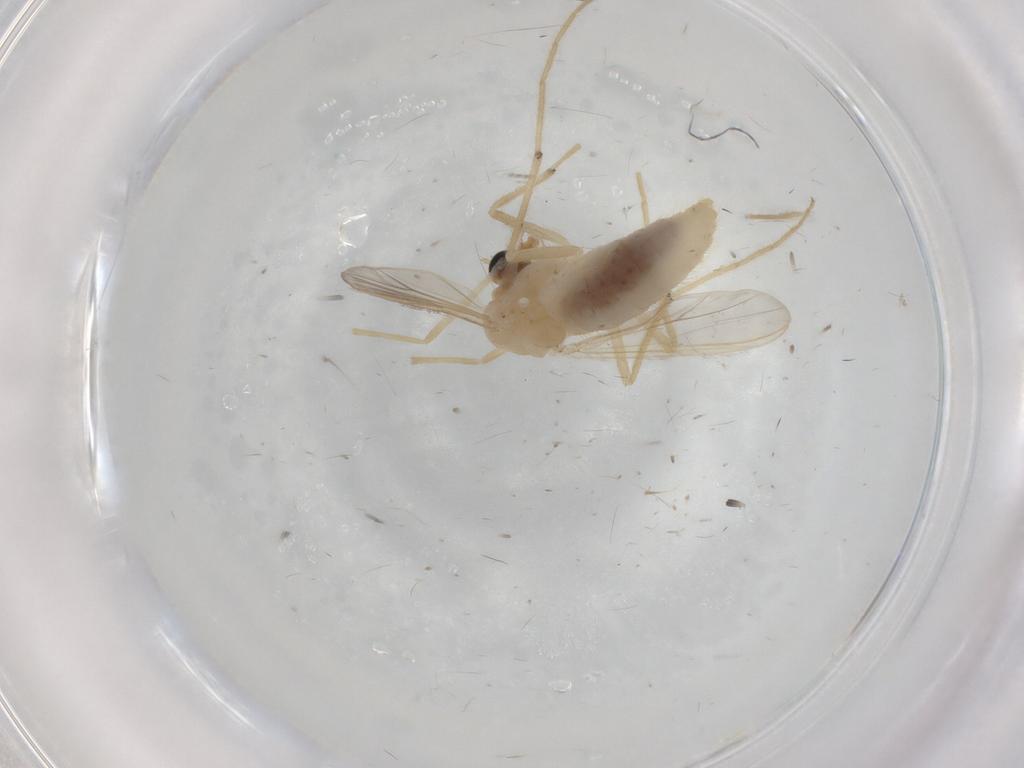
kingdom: Animalia
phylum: Arthropoda
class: Insecta
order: Diptera
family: Chironomidae
